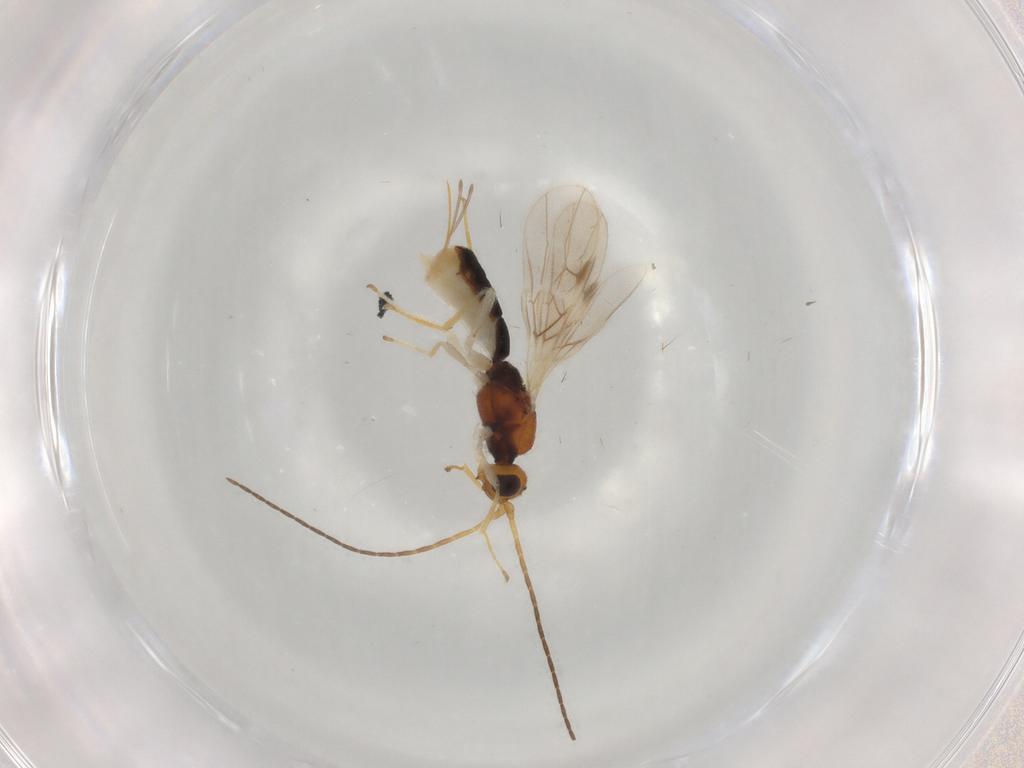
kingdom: Animalia
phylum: Arthropoda
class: Insecta
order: Hymenoptera
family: Braconidae
